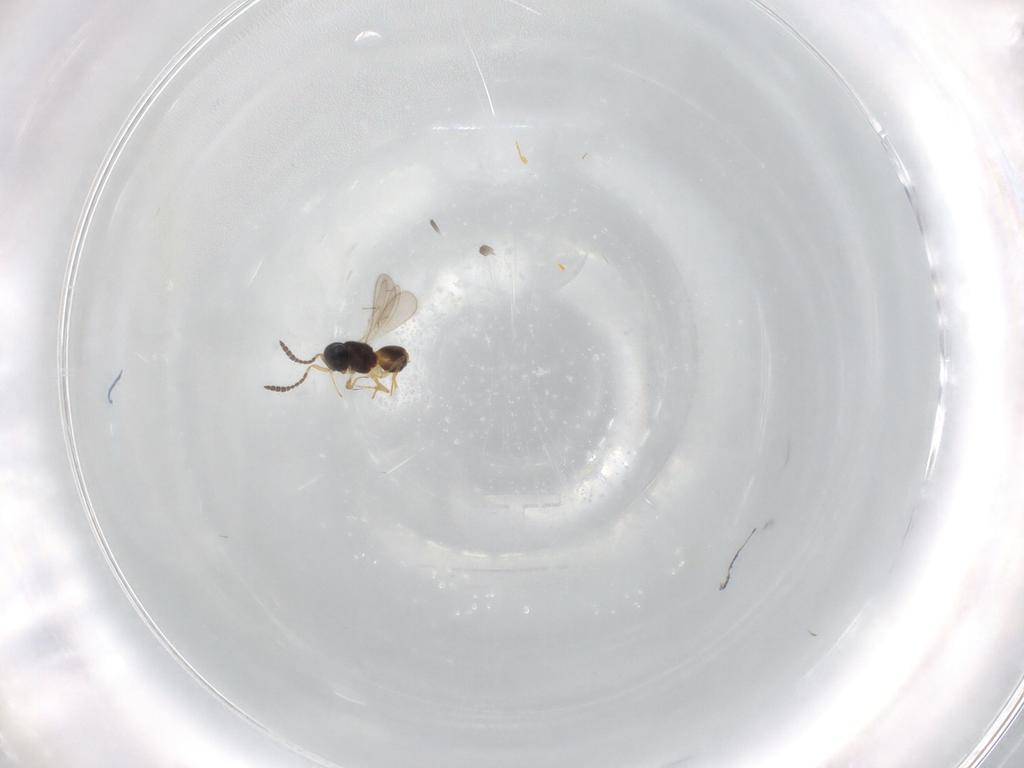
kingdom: Animalia
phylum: Arthropoda
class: Insecta
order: Hymenoptera
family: Scelionidae
